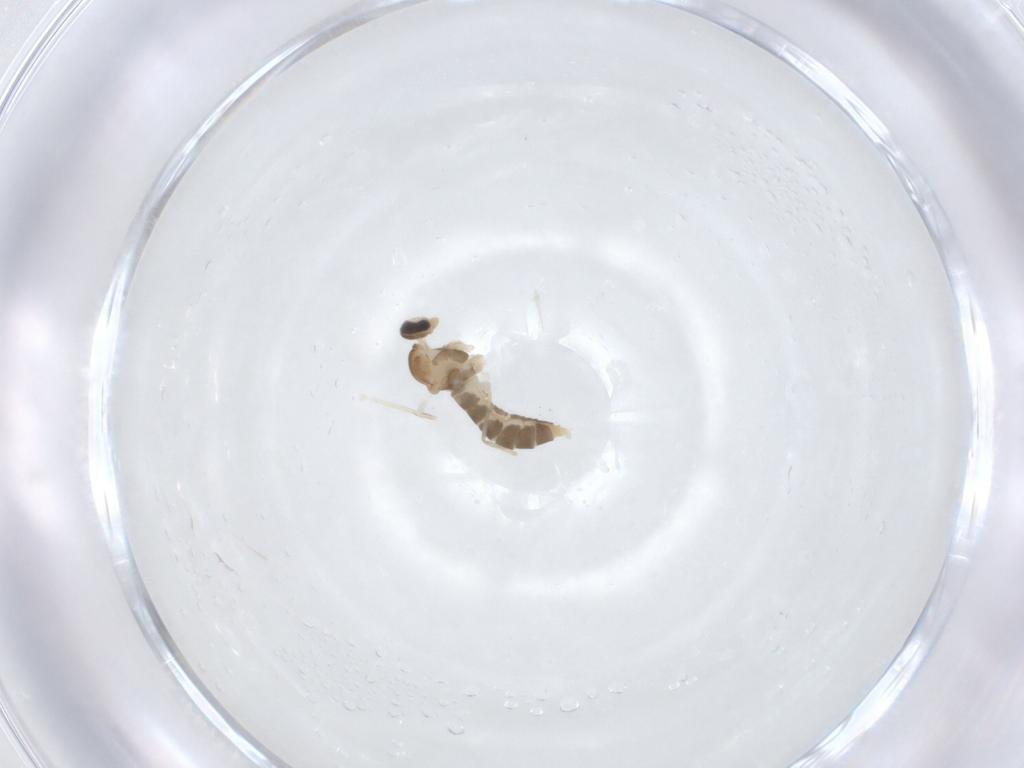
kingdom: Animalia
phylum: Arthropoda
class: Insecta
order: Diptera
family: Cecidomyiidae
